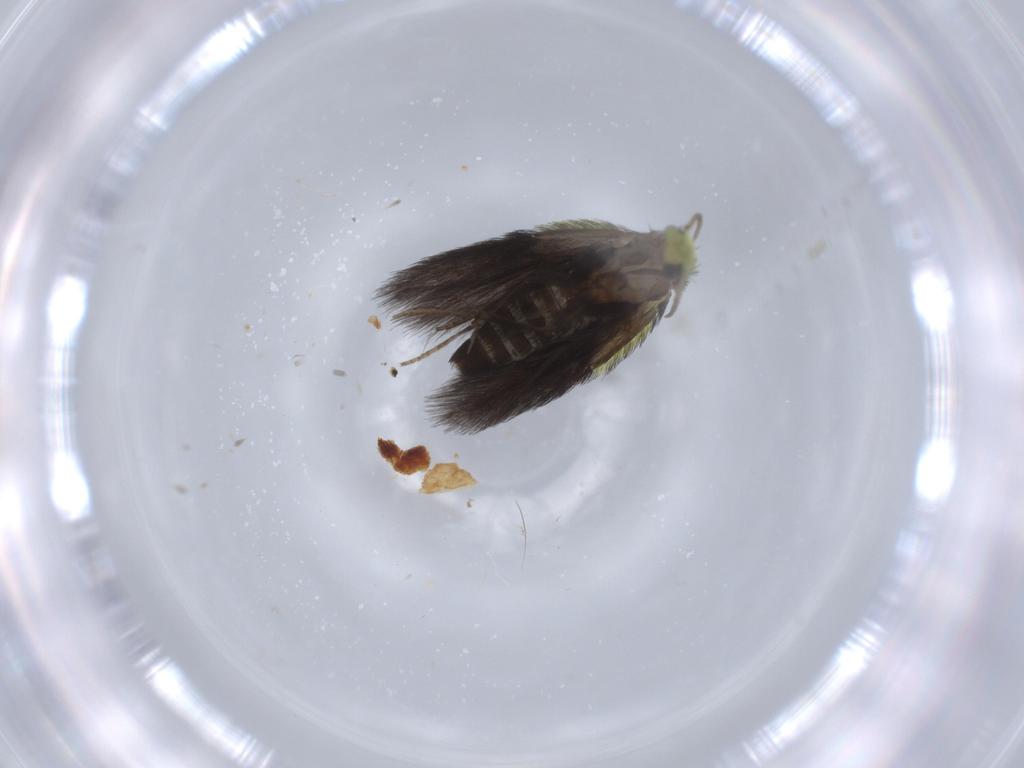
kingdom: Animalia
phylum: Arthropoda
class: Insecta
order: Trichoptera
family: Hydroptilidae
